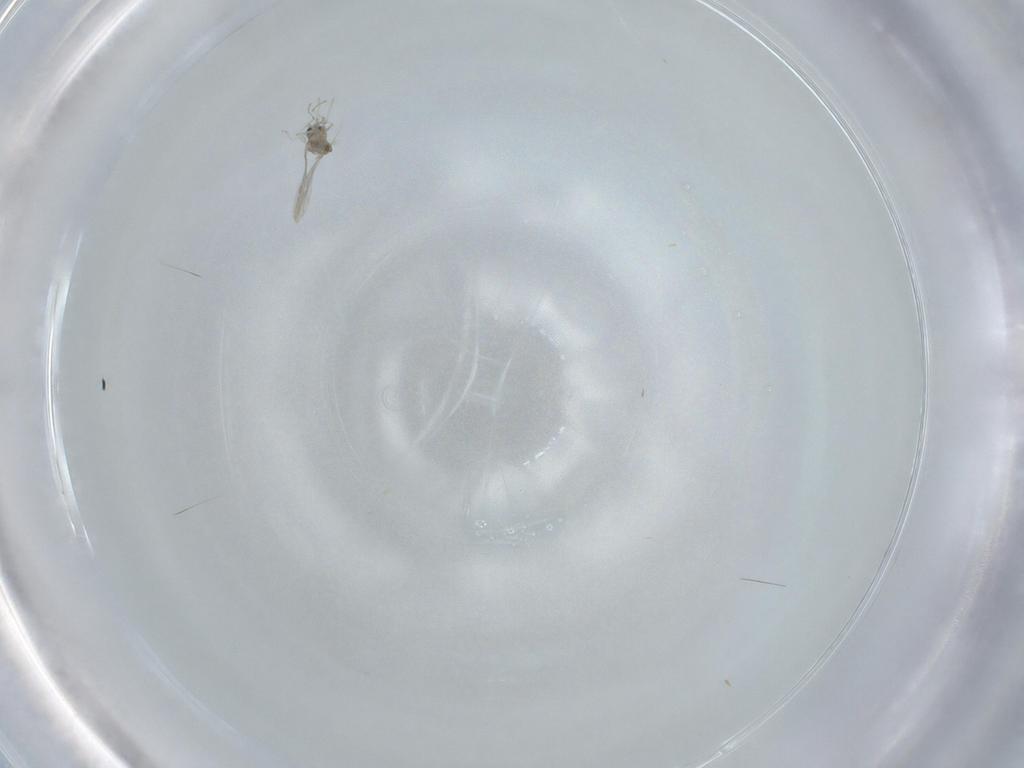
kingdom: Animalia
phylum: Arthropoda
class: Insecta
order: Diptera
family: Cecidomyiidae
